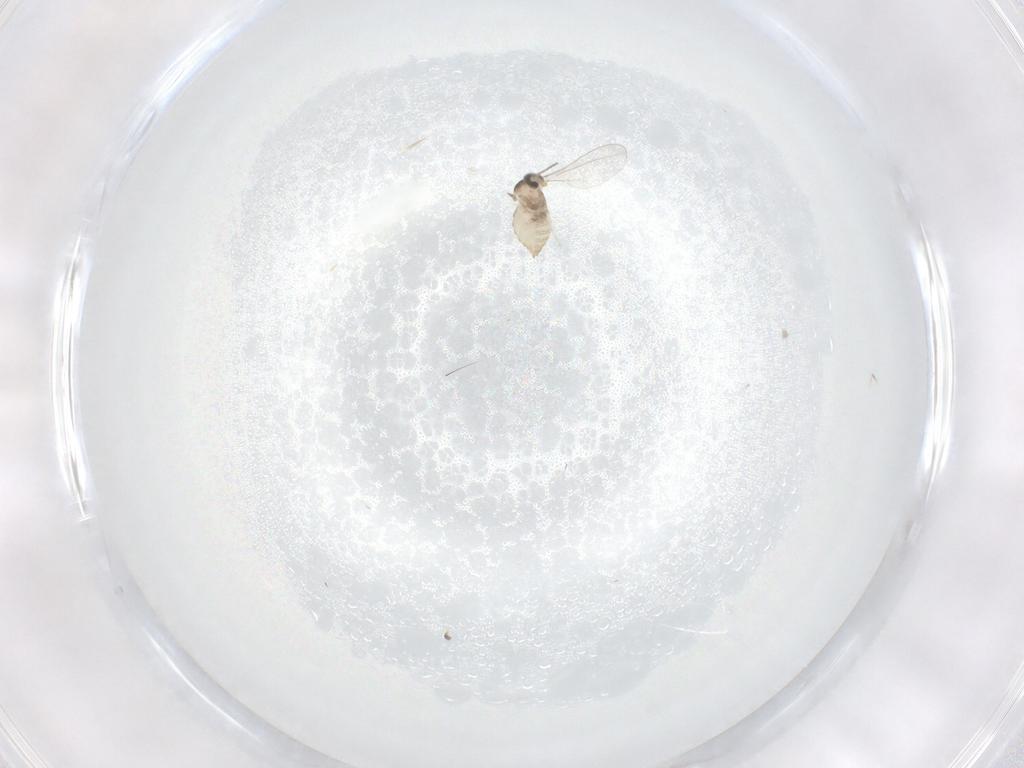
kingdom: Animalia
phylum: Arthropoda
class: Insecta
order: Diptera
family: Cecidomyiidae
